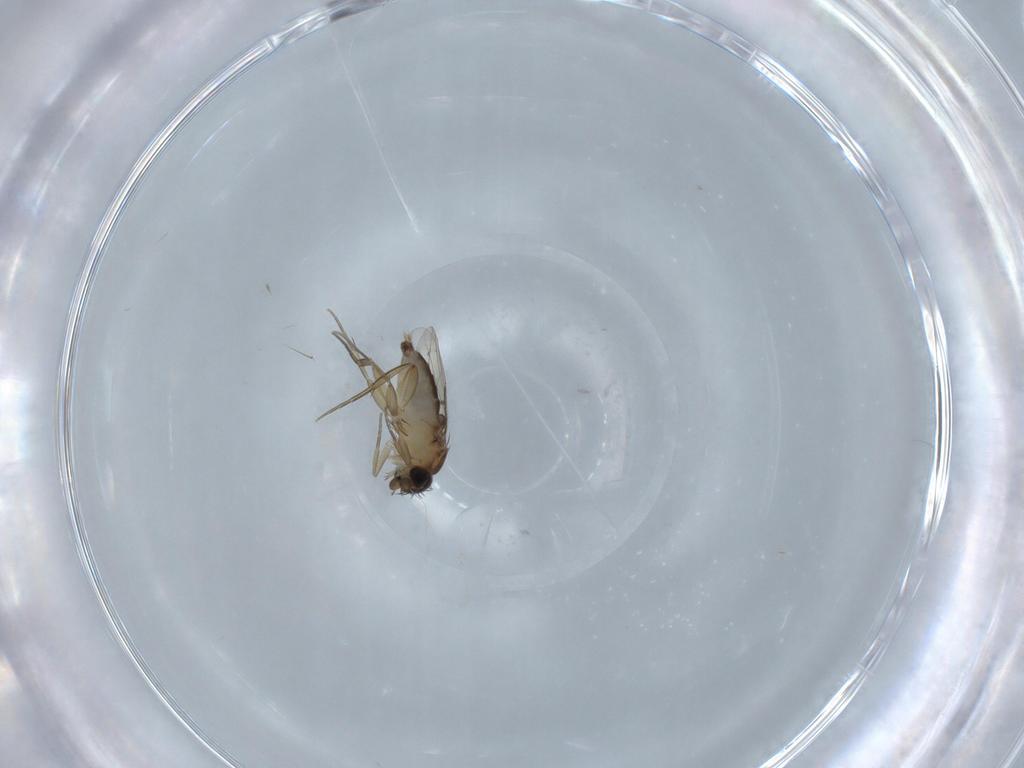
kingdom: Animalia
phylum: Arthropoda
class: Insecta
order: Diptera
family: Phoridae
